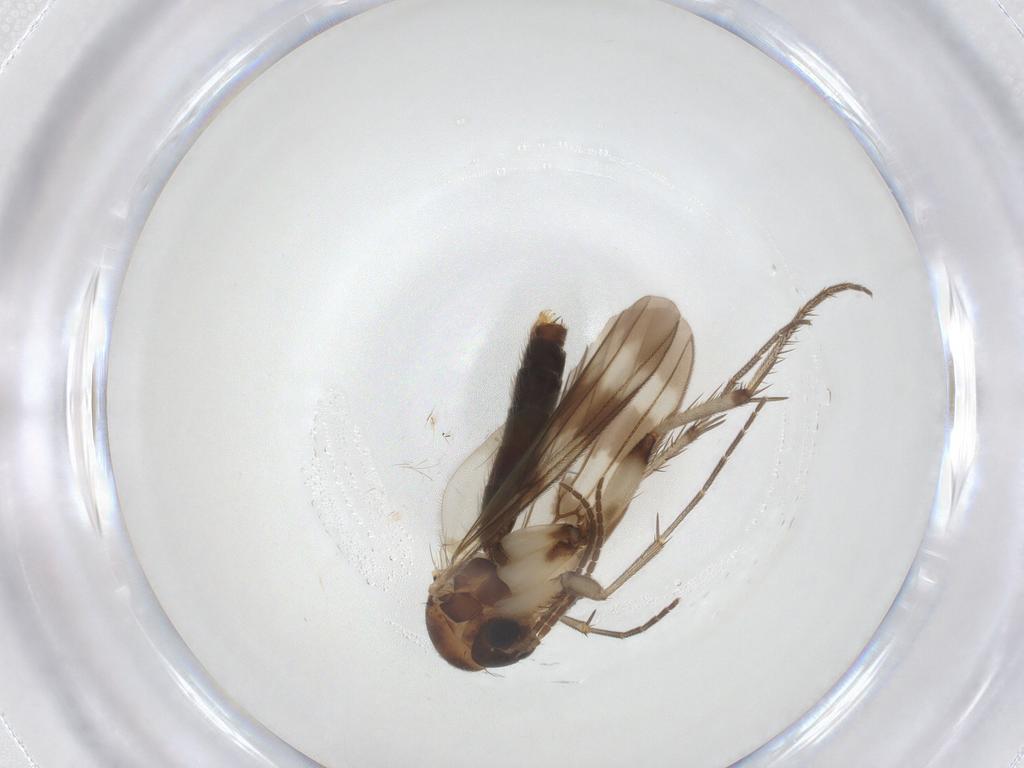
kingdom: Animalia
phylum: Arthropoda
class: Insecta
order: Diptera
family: Mycetophilidae
